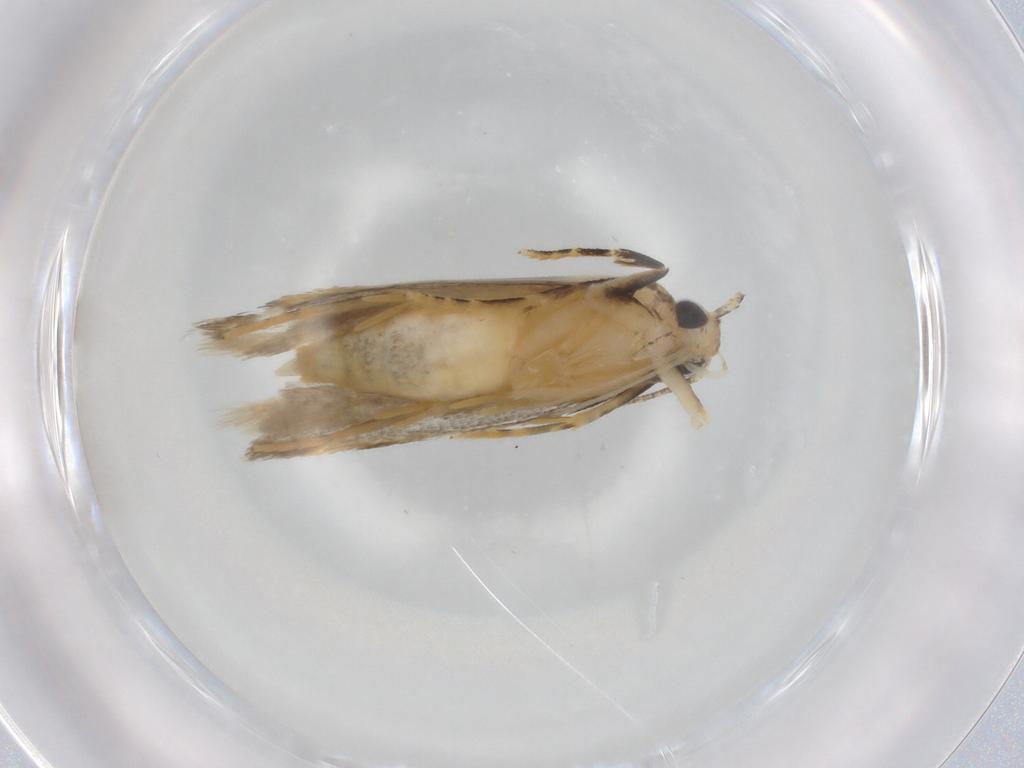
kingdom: Animalia
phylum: Arthropoda
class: Insecta
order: Lepidoptera
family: Autostichidae
